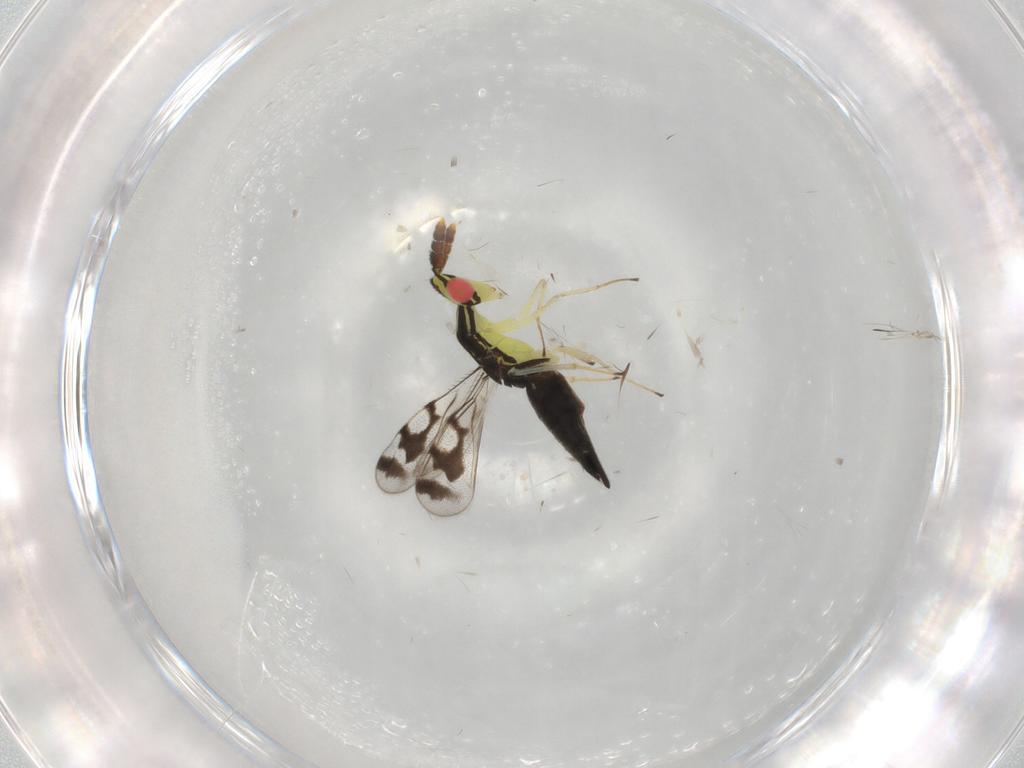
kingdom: Animalia
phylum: Arthropoda
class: Insecta
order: Hymenoptera
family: Eulophidae
